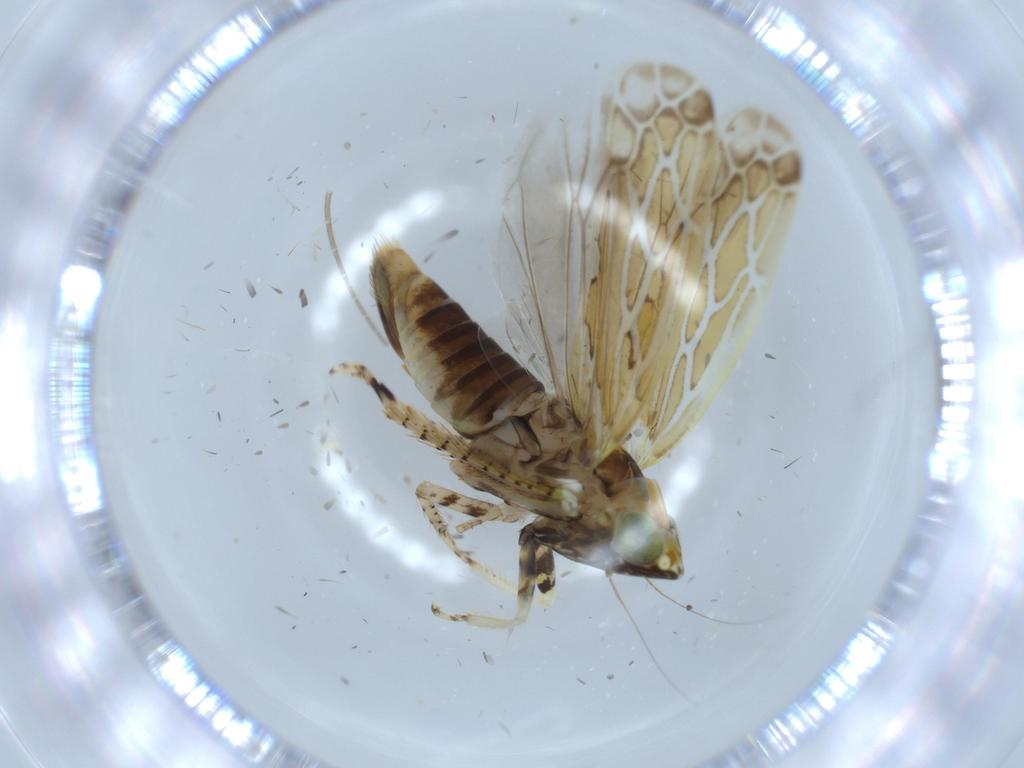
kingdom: Animalia
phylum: Arthropoda
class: Insecta
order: Hemiptera
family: Cicadellidae
